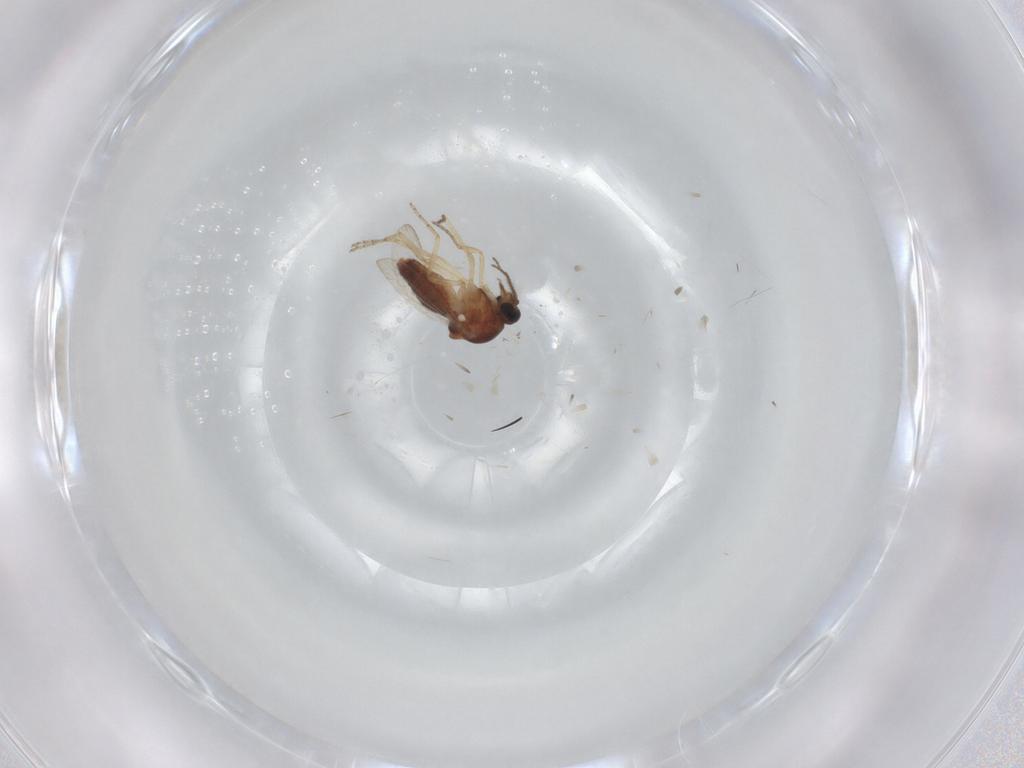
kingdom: Animalia
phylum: Arthropoda
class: Insecta
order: Diptera
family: Ceratopogonidae
